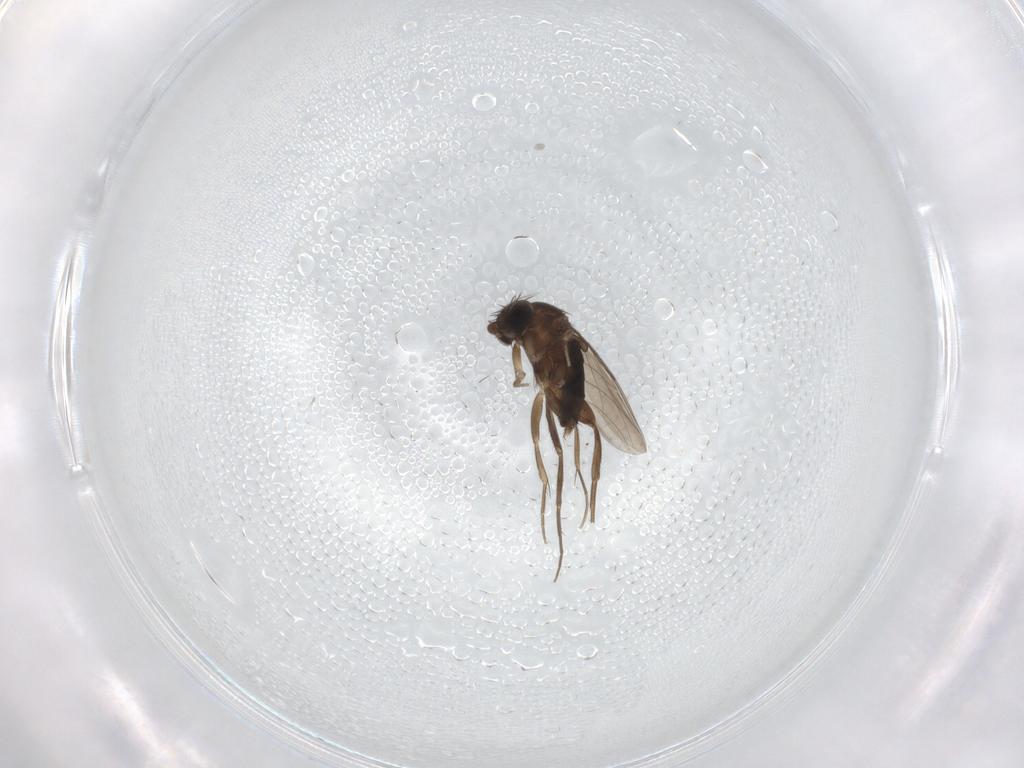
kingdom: Animalia
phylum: Arthropoda
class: Insecta
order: Diptera
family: Phoridae
